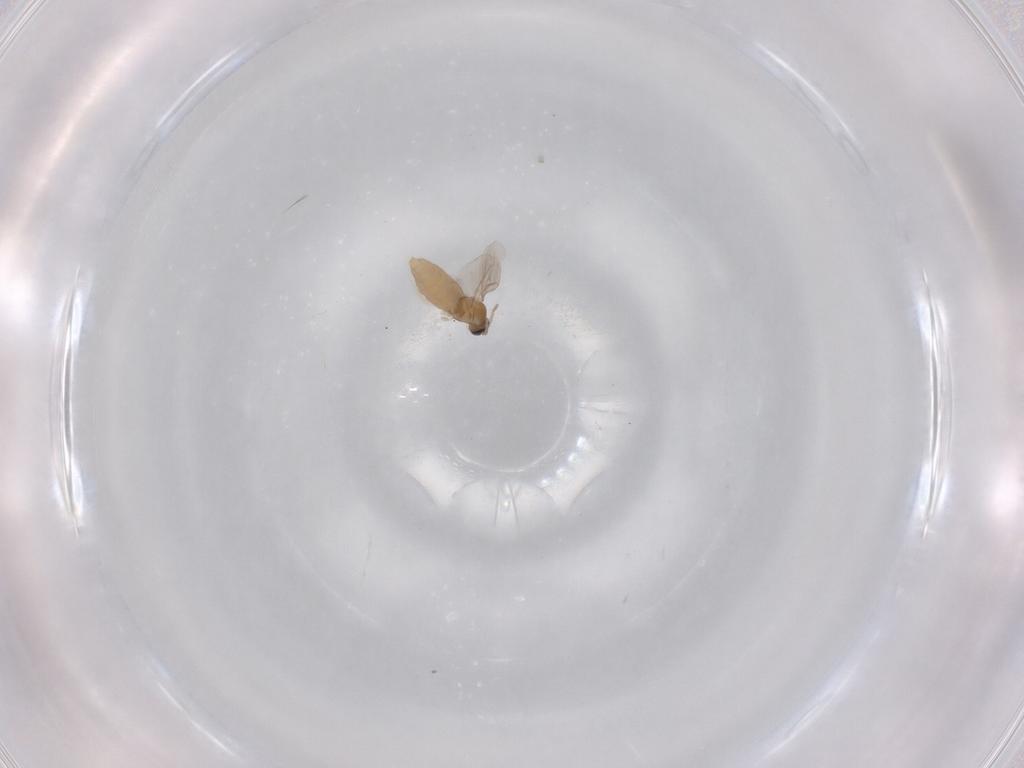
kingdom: Animalia
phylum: Arthropoda
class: Insecta
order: Diptera
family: Cecidomyiidae
